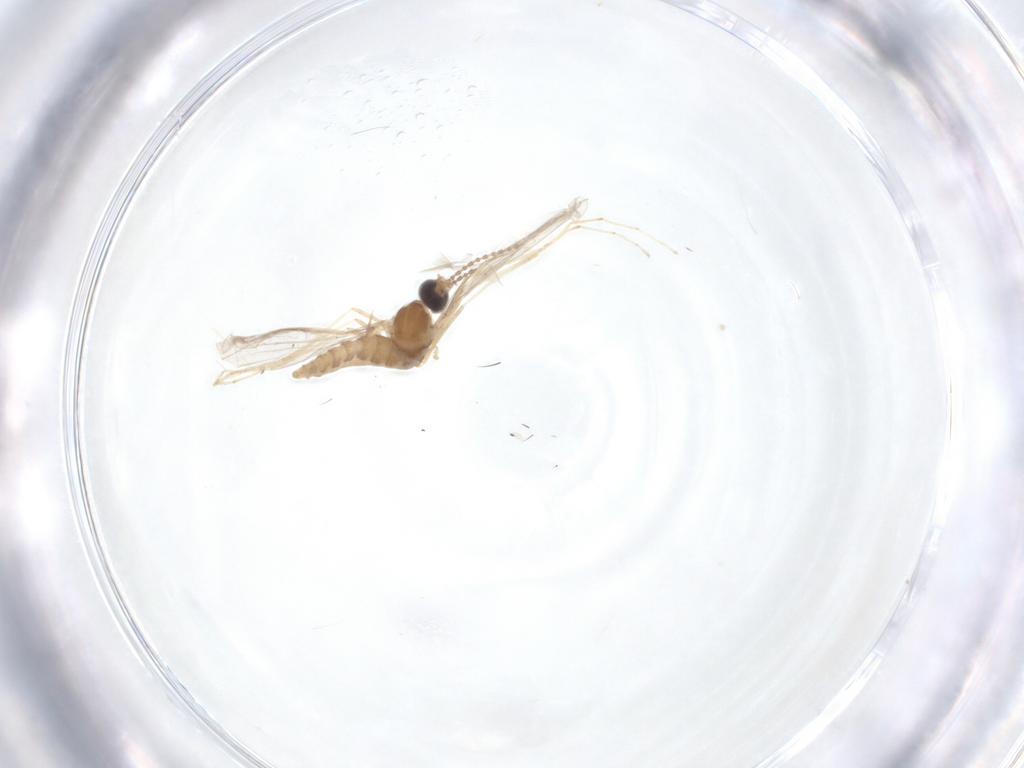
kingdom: Animalia
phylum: Arthropoda
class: Insecta
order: Diptera
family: Cecidomyiidae
